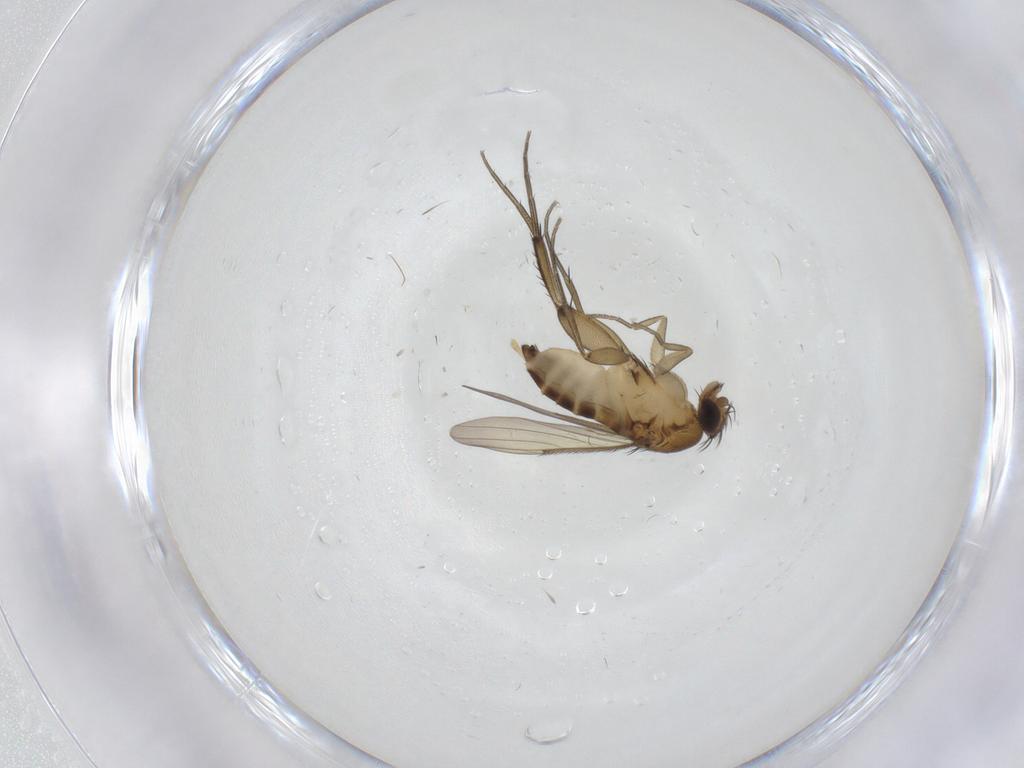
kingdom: Animalia
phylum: Arthropoda
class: Insecta
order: Diptera
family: Phoridae
